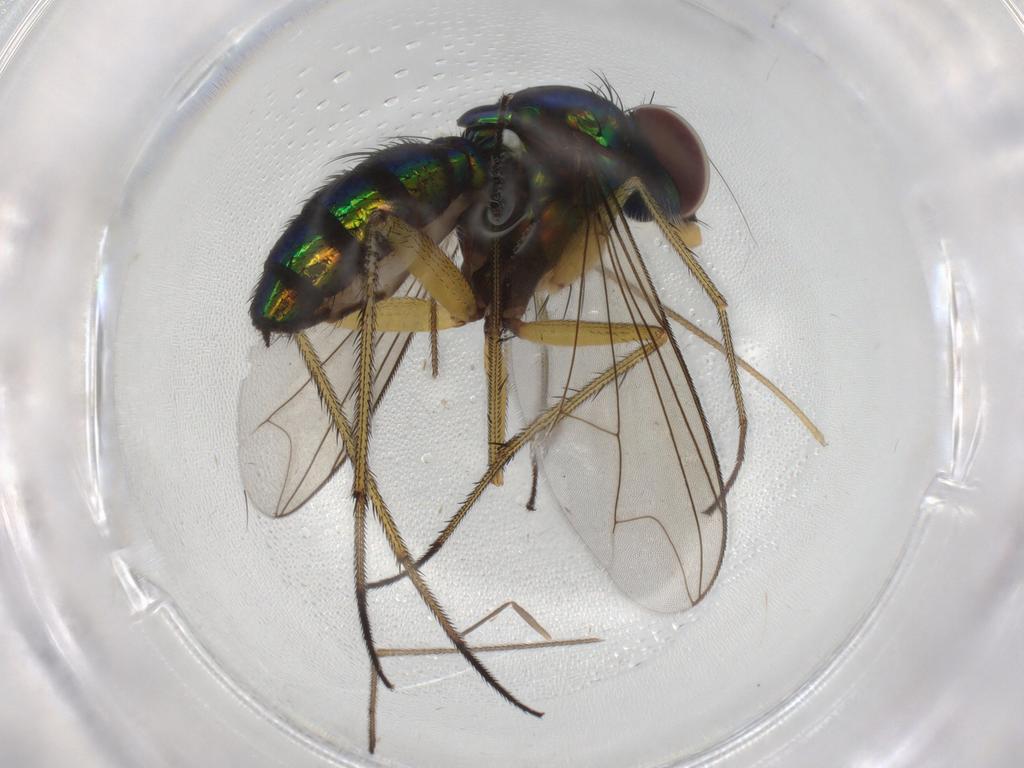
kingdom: Animalia
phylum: Arthropoda
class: Insecta
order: Diptera
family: Dolichopodidae
